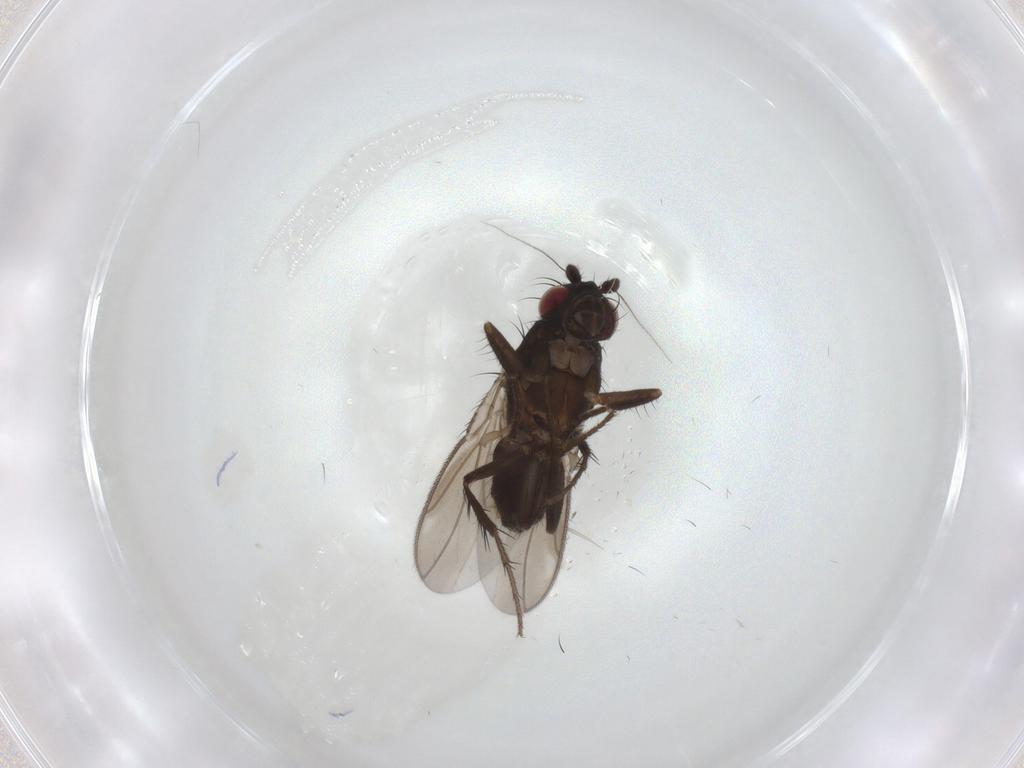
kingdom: Animalia
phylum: Arthropoda
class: Insecta
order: Diptera
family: Sphaeroceridae
